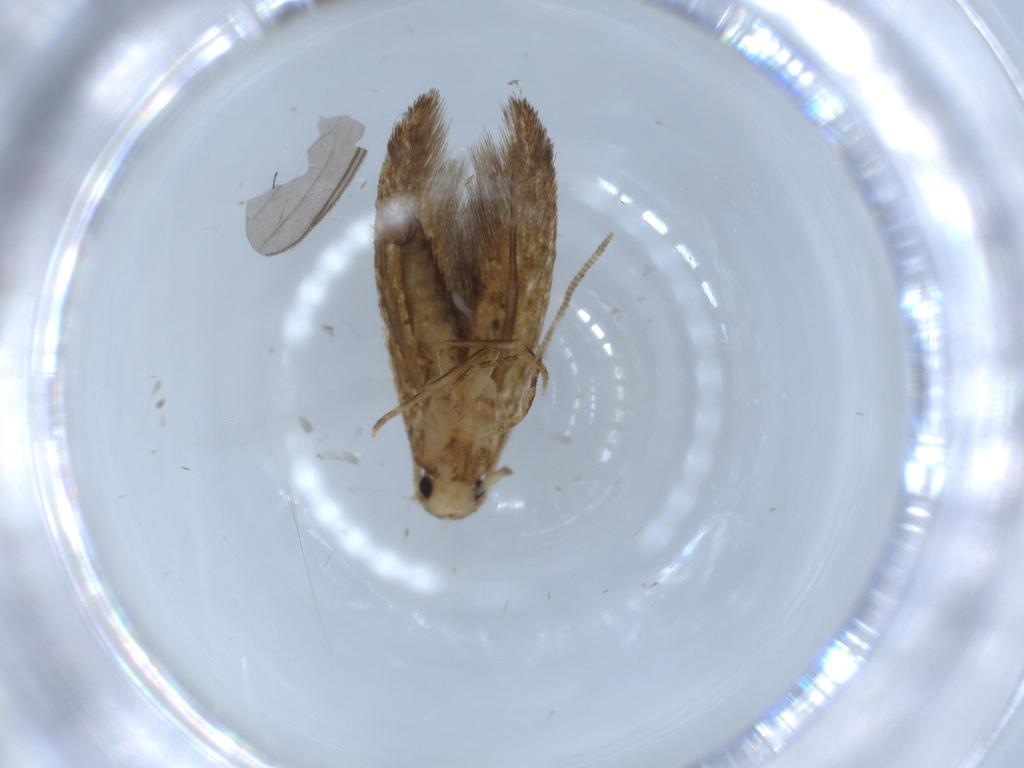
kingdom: Animalia
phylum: Arthropoda
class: Insecta
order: Lepidoptera
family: Tineidae
